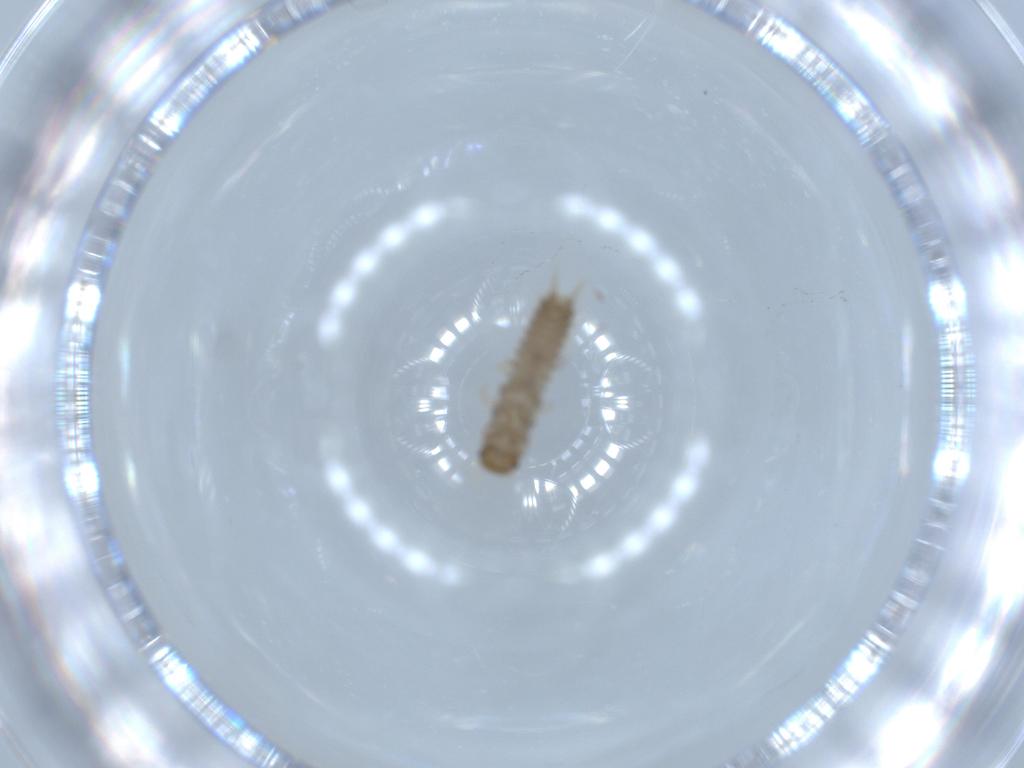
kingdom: Animalia
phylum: Arthropoda
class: Insecta
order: Coleoptera
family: Staphylinidae
